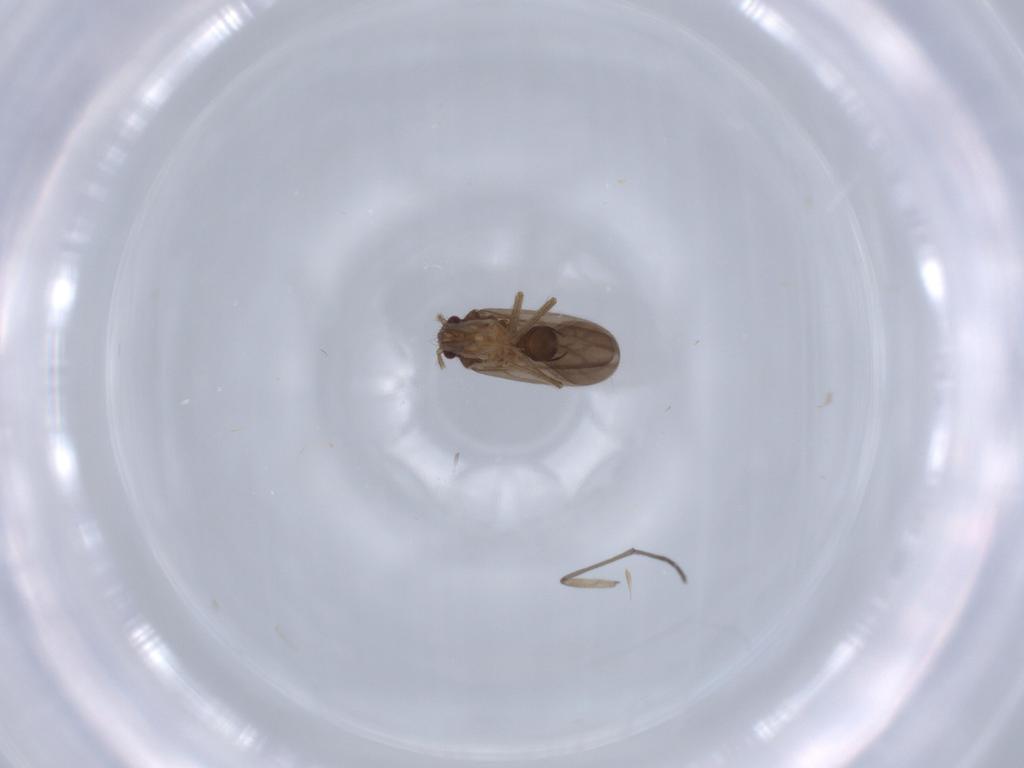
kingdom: Animalia
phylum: Arthropoda
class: Insecta
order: Hemiptera
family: Ceratocombidae
